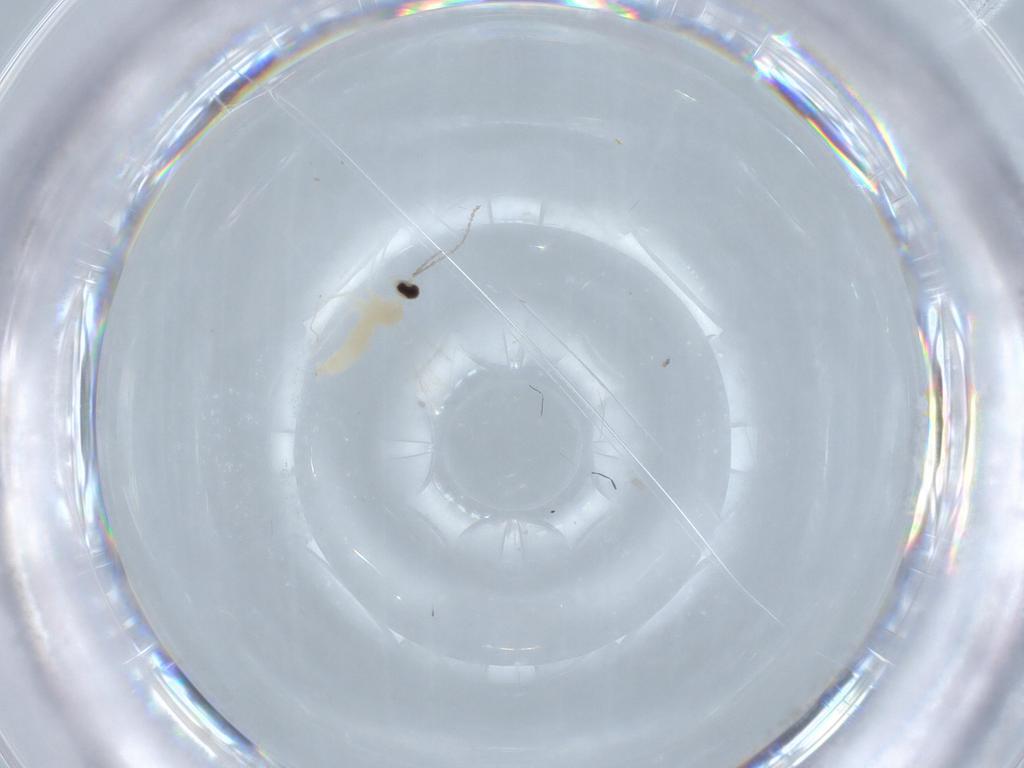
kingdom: Animalia
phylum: Arthropoda
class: Insecta
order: Diptera
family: Cecidomyiidae
